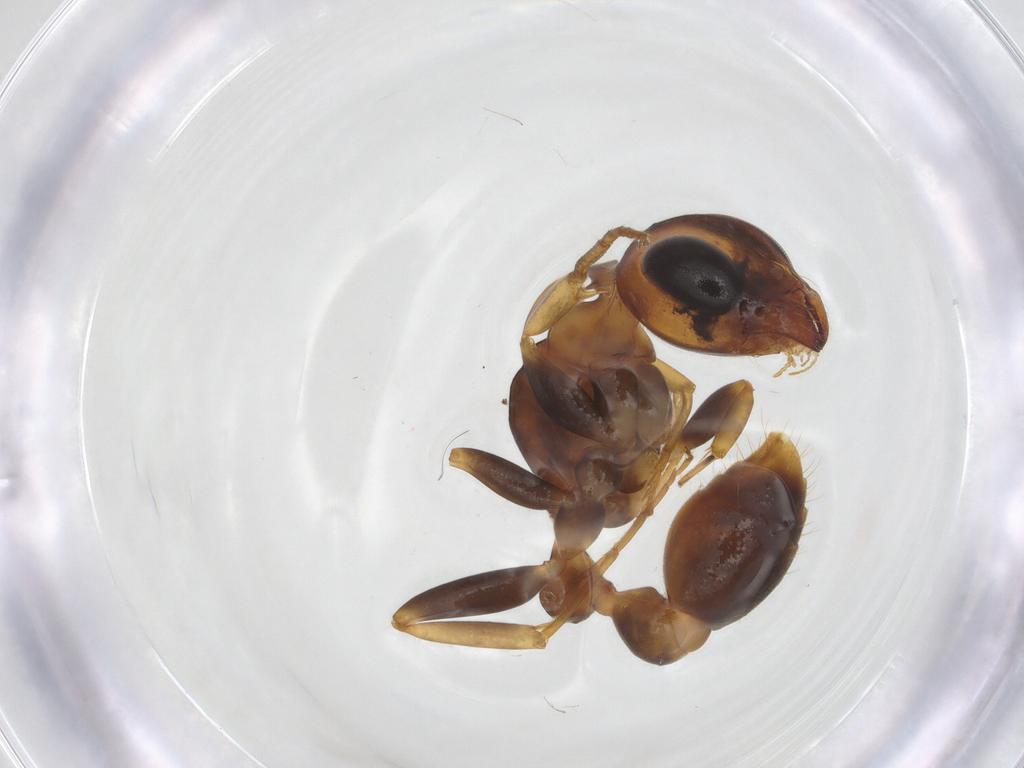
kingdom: Animalia
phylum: Arthropoda
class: Insecta
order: Hymenoptera
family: Formicidae
